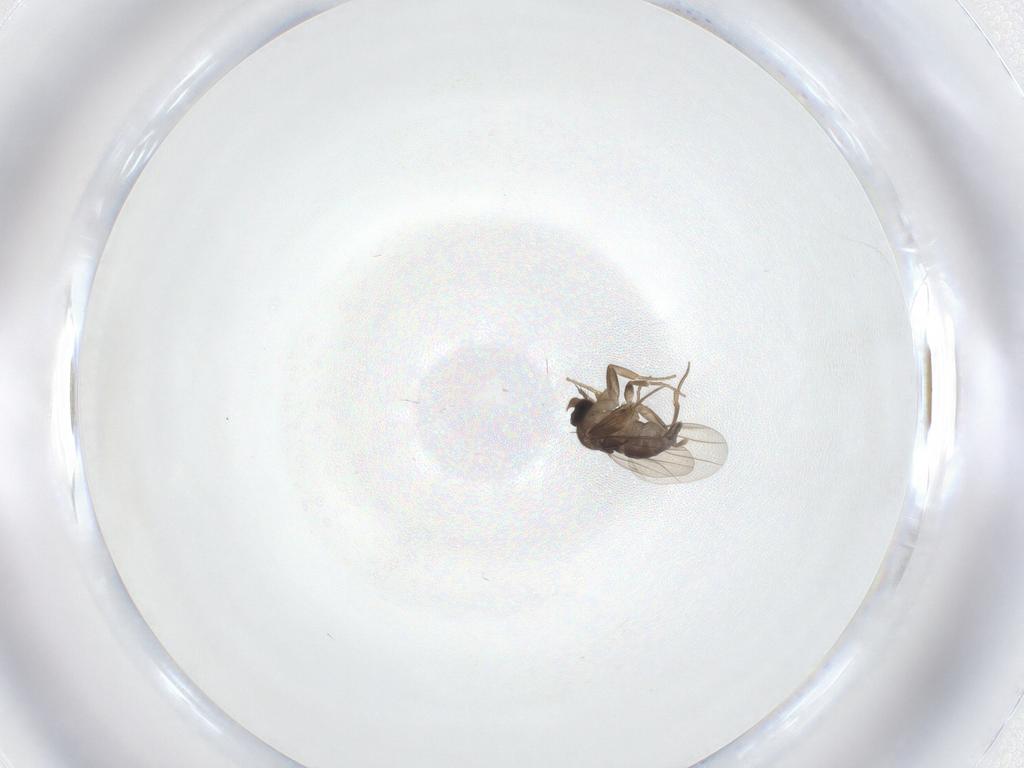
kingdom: Animalia
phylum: Arthropoda
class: Insecta
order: Diptera
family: Phoridae
